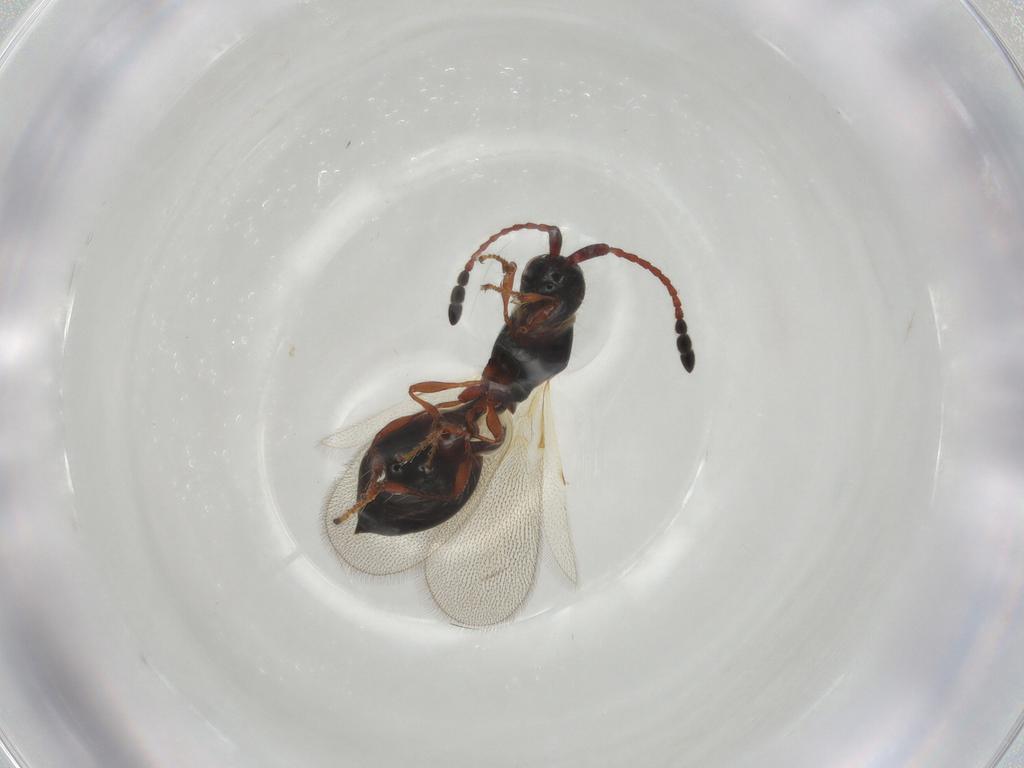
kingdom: Animalia
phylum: Arthropoda
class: Insecta
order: Hymenoptera
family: Diapriidae
